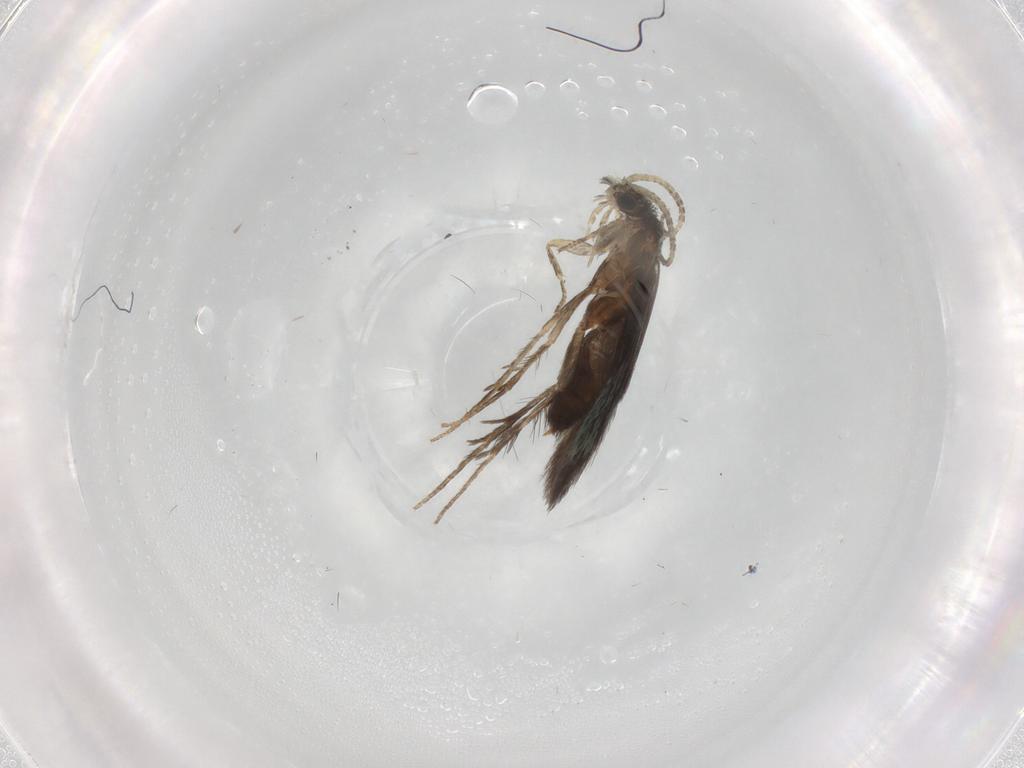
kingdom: Animalia
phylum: Arthropoda
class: Insecta
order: Trichoptera
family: Hydroptilidae
